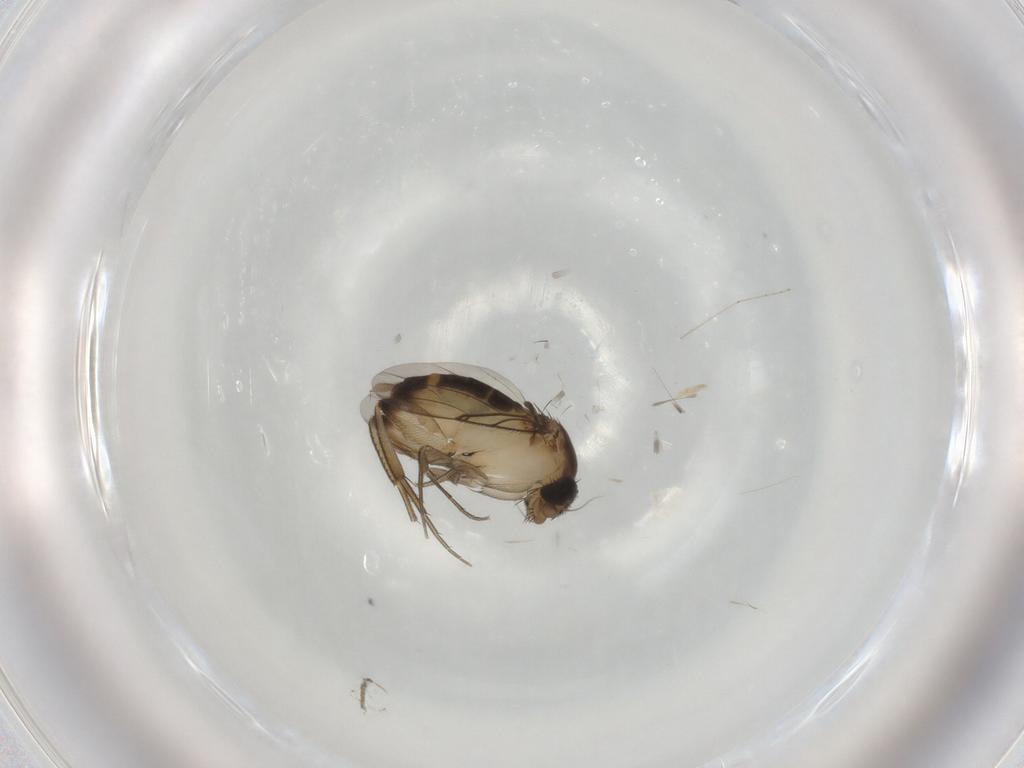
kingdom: Animalia
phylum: Arthropoda
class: Insecta
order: Diptera
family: Phoridae
